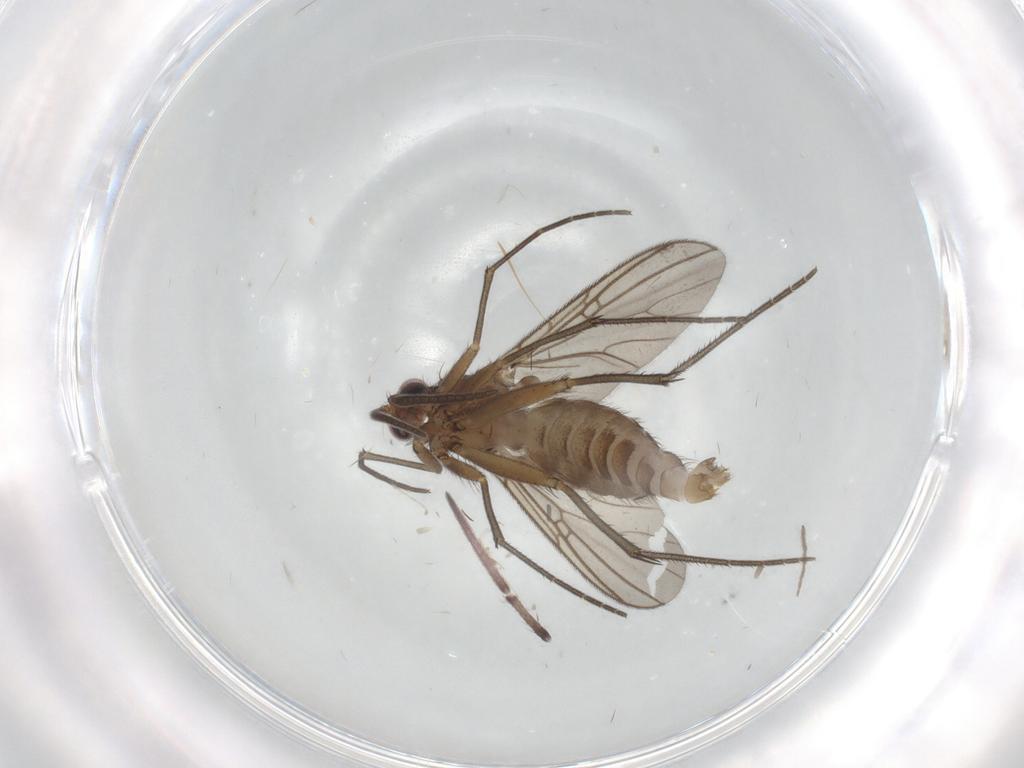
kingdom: Animalia
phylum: Arthropoda
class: Insecta
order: Diptera
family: Mycetophilidae
